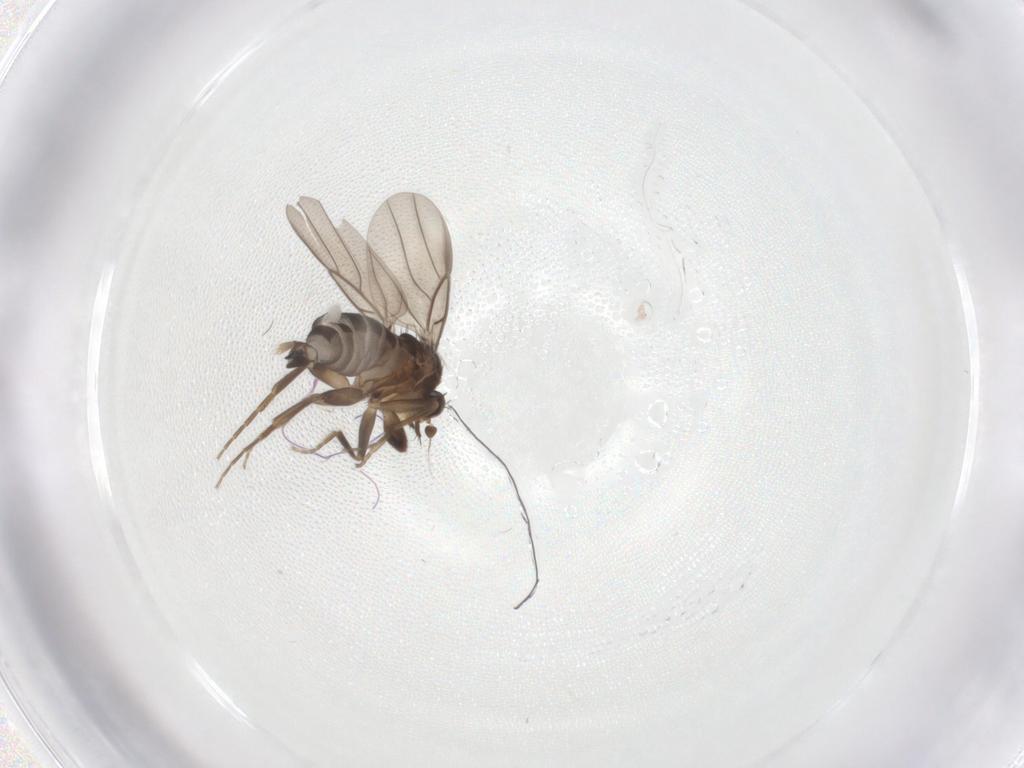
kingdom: Animalia
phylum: Arthropoda
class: Insecta
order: Diptera
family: Phoridae
